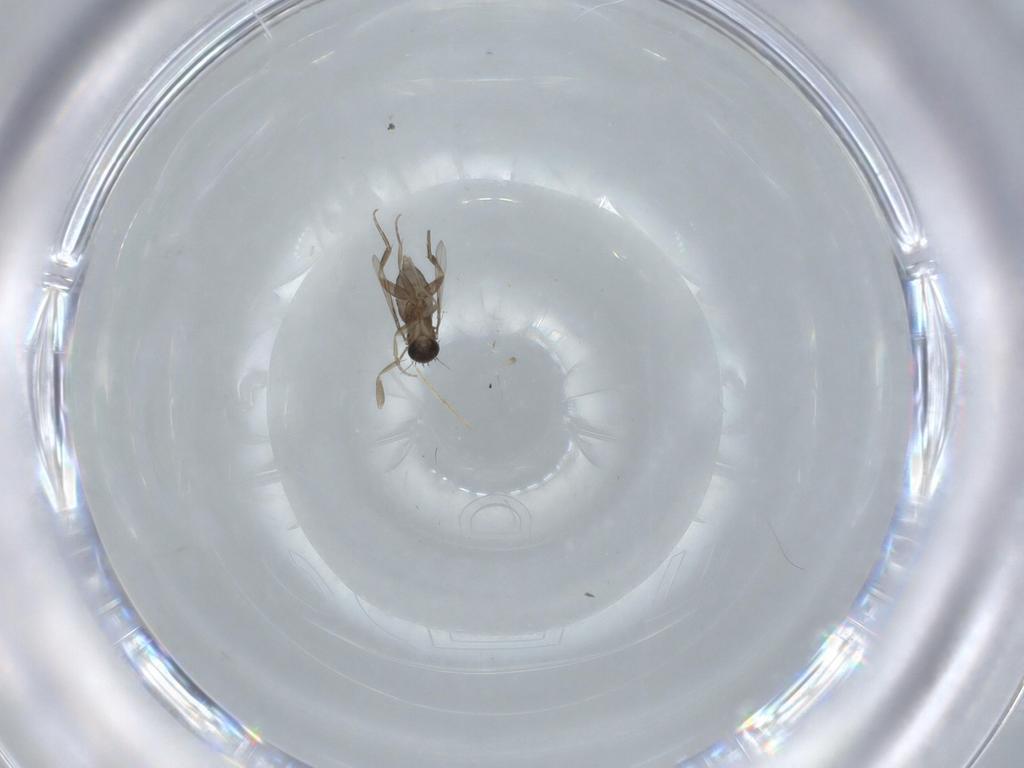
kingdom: Animalia
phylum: Arthropoda
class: Insecta
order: Diptera
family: Phoridae
